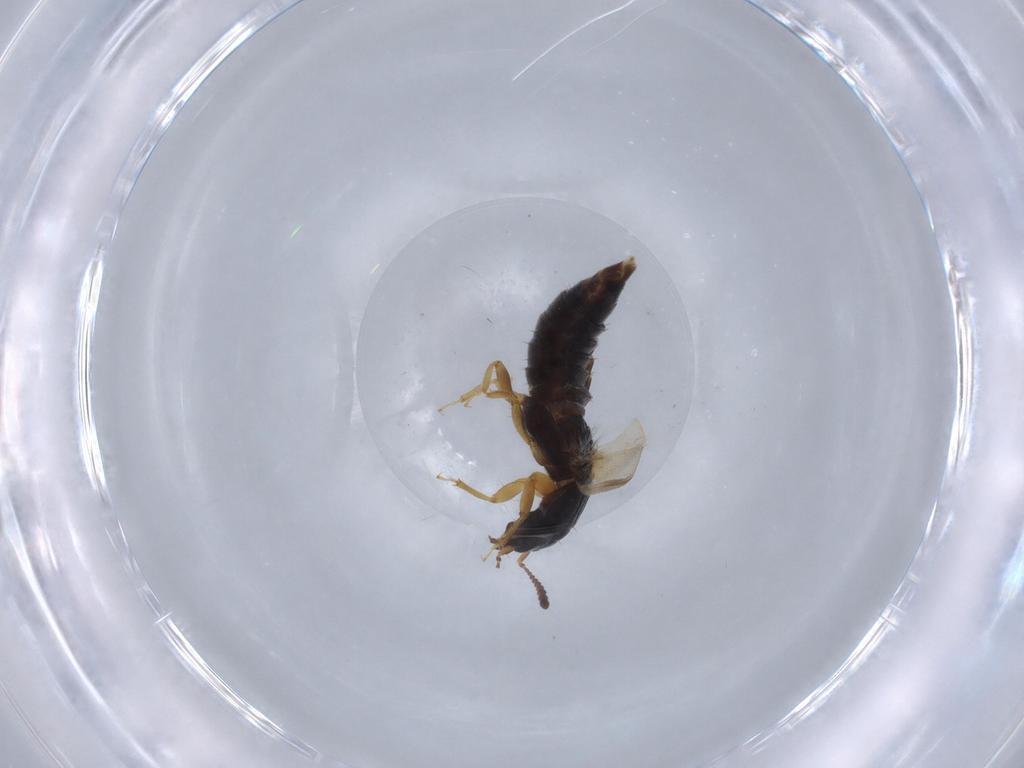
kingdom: Animalia
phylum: Arthropoda
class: Insecta
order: Coleoptera
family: Staphylinidae
